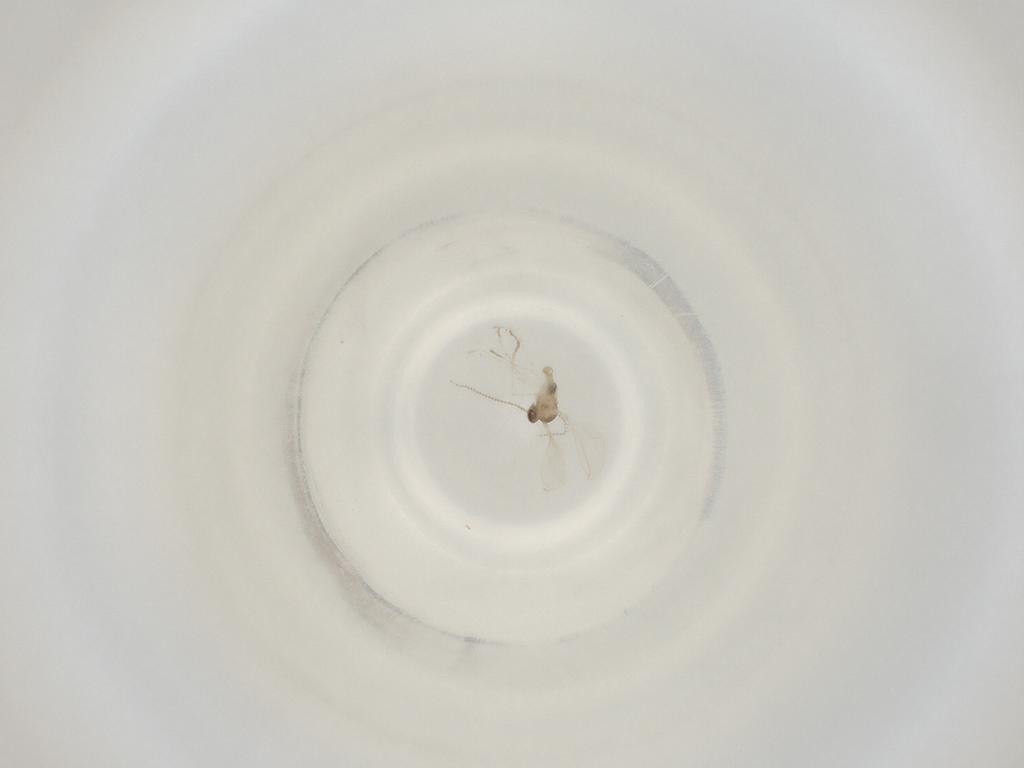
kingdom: Animalia
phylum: Arthropoda
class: Insecta
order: Diptera
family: Cecidomyiidae
